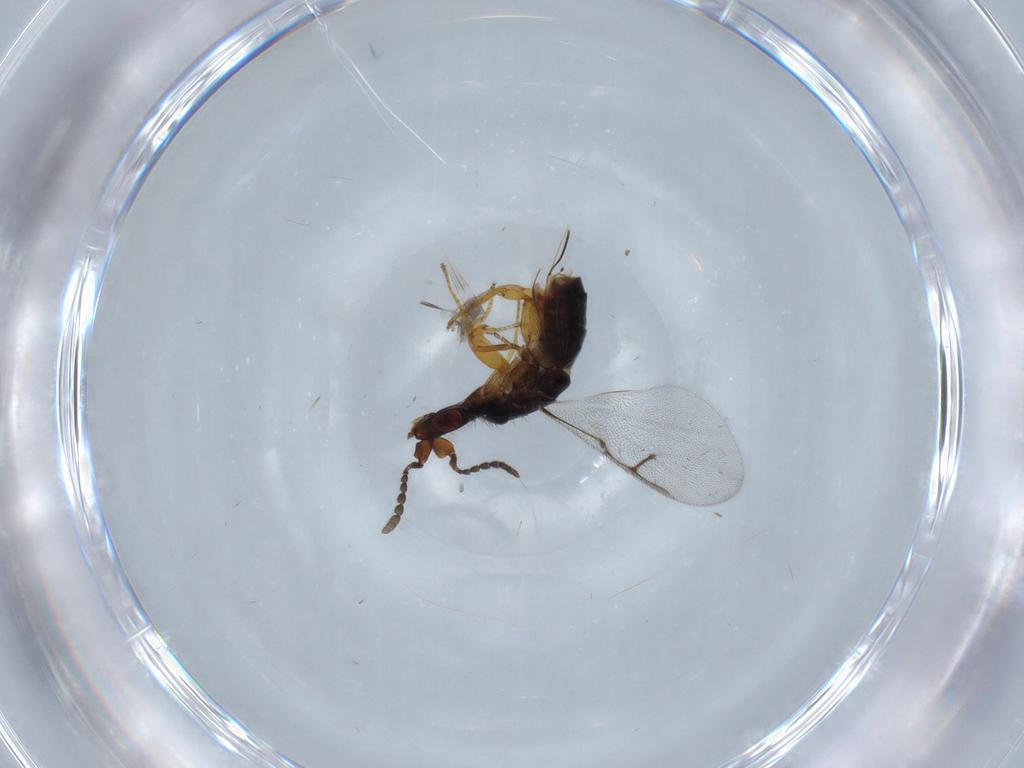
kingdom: Animalia
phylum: Arthropoda
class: Insecta
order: Hymenoptera
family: Agaonidae
